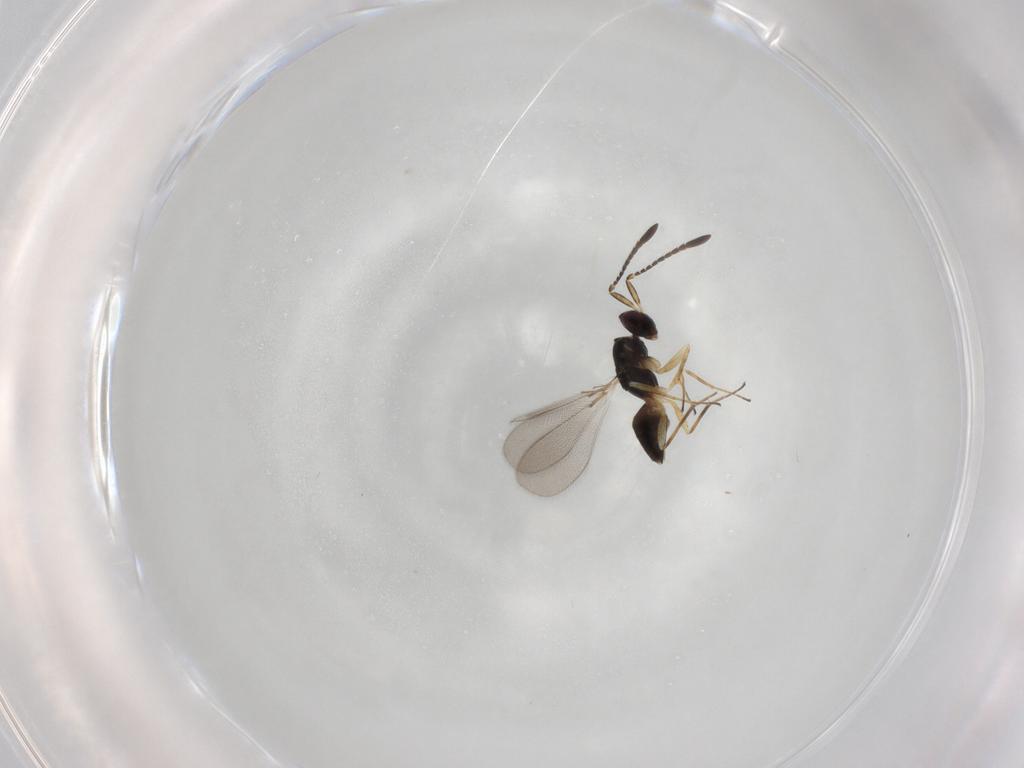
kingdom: Animalia
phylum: Arthropoda
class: Insecta
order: Hymenoptera
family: Mymaridae
